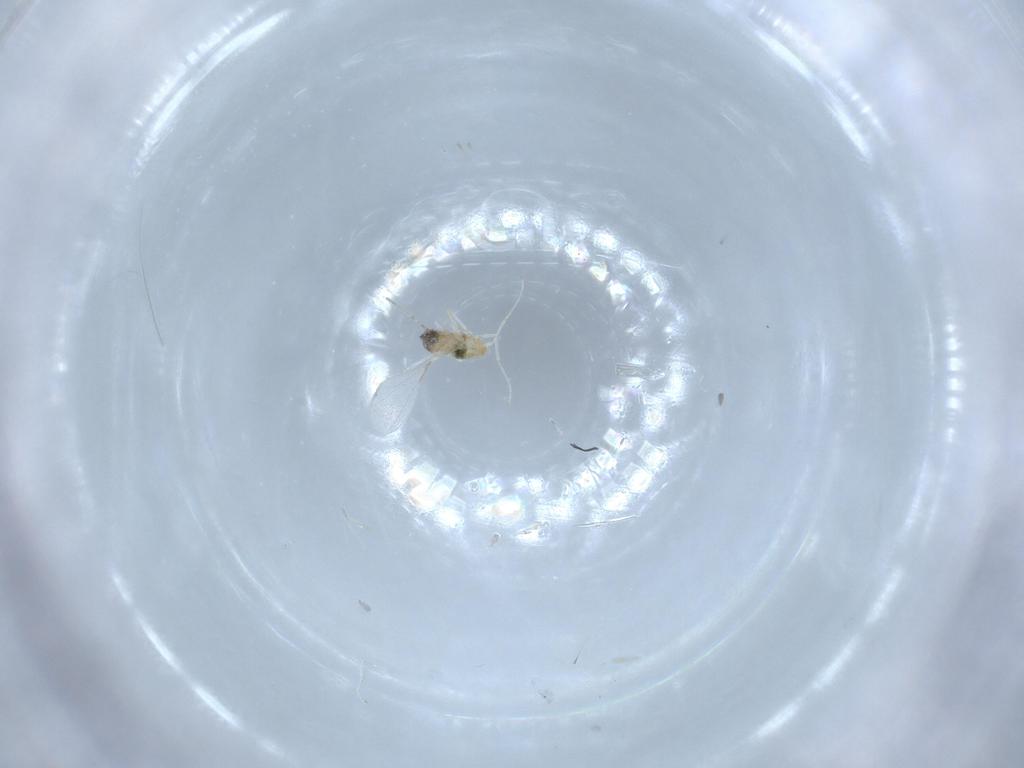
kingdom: Animalia
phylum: Arthropoda
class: Insecta
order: Diptera
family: Cecidomyiidae
